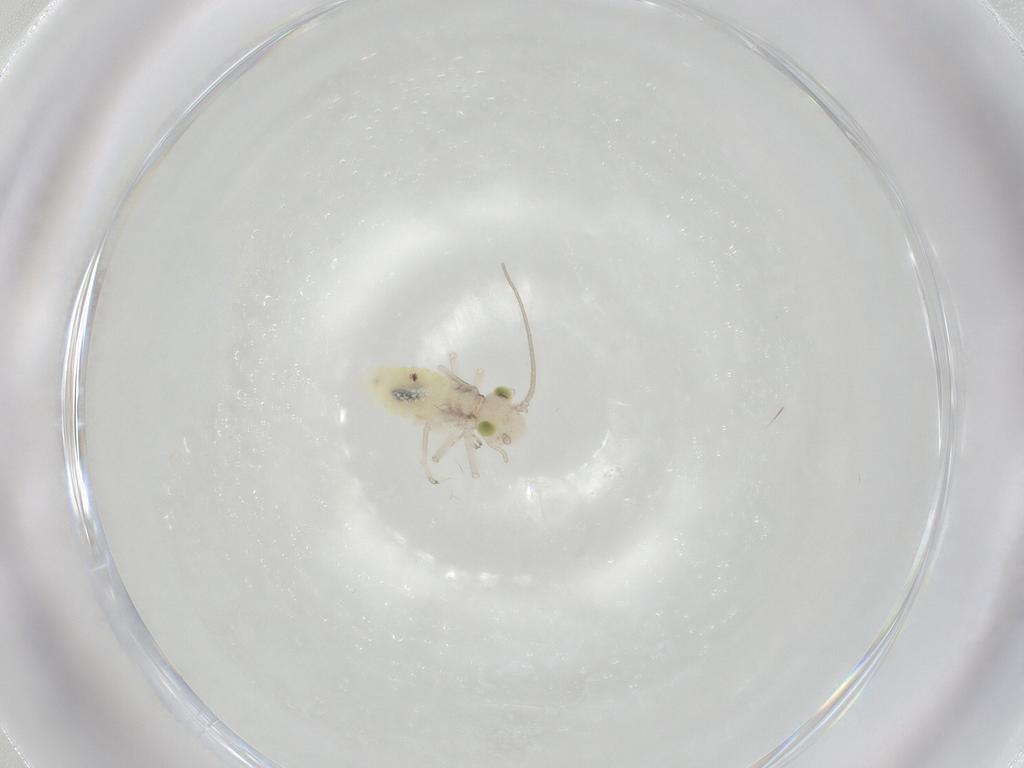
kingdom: Animalia
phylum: Arthropoda
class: Insecta
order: Psocodea
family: Caeciliusidae
